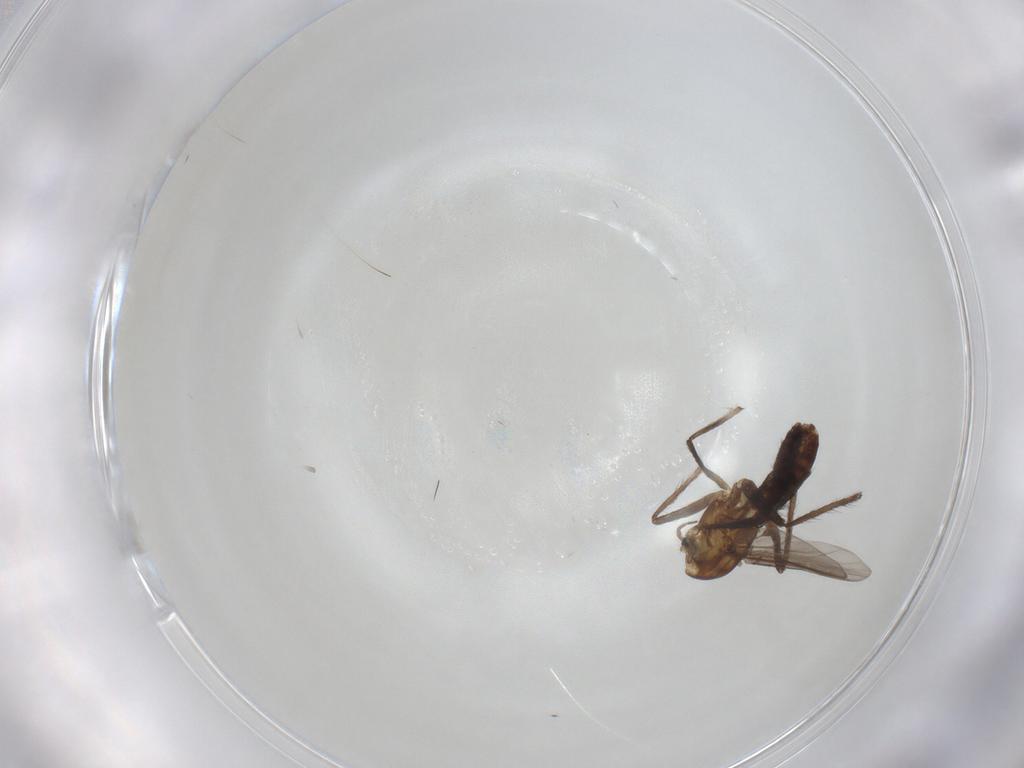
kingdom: Animalia
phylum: Arthropoda
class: Insecta
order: Diptera
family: Chironomidae
